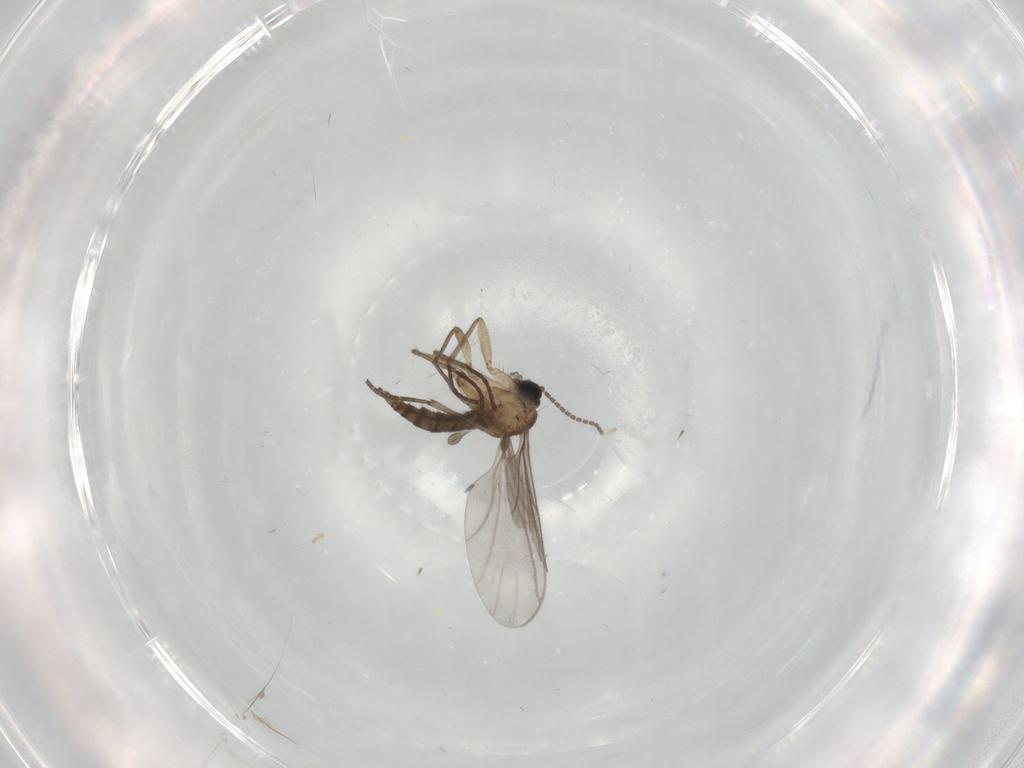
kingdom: Animalia
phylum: Arthropoda
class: Insecta
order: Diptera
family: Sciaridae
